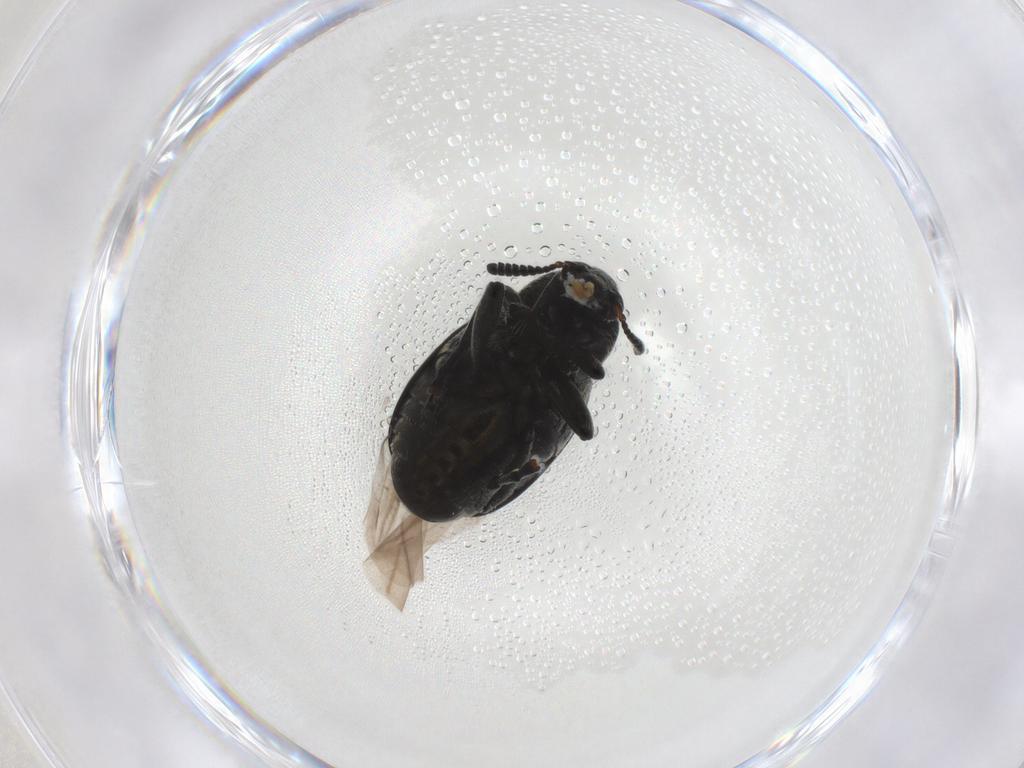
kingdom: Animalia
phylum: Arthropoda
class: Insecta
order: Coleoptera
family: Chrysomelidae
